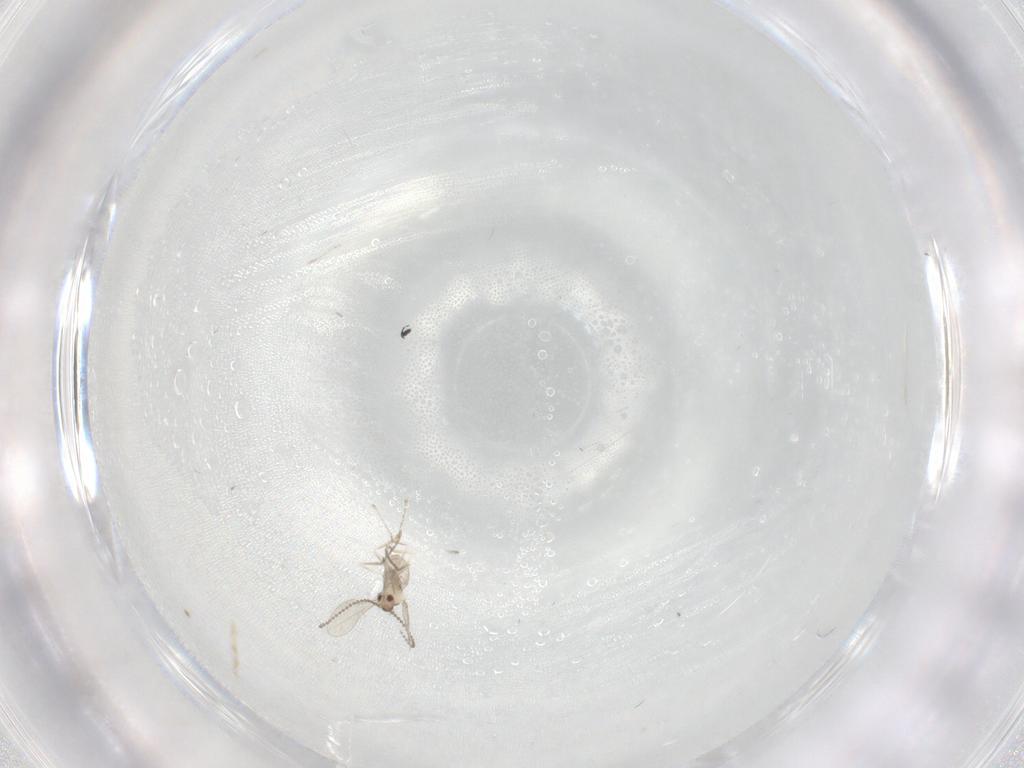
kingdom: Animalia
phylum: Arthropoda
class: Insecta
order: Diptera
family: Cecidomyiidae
